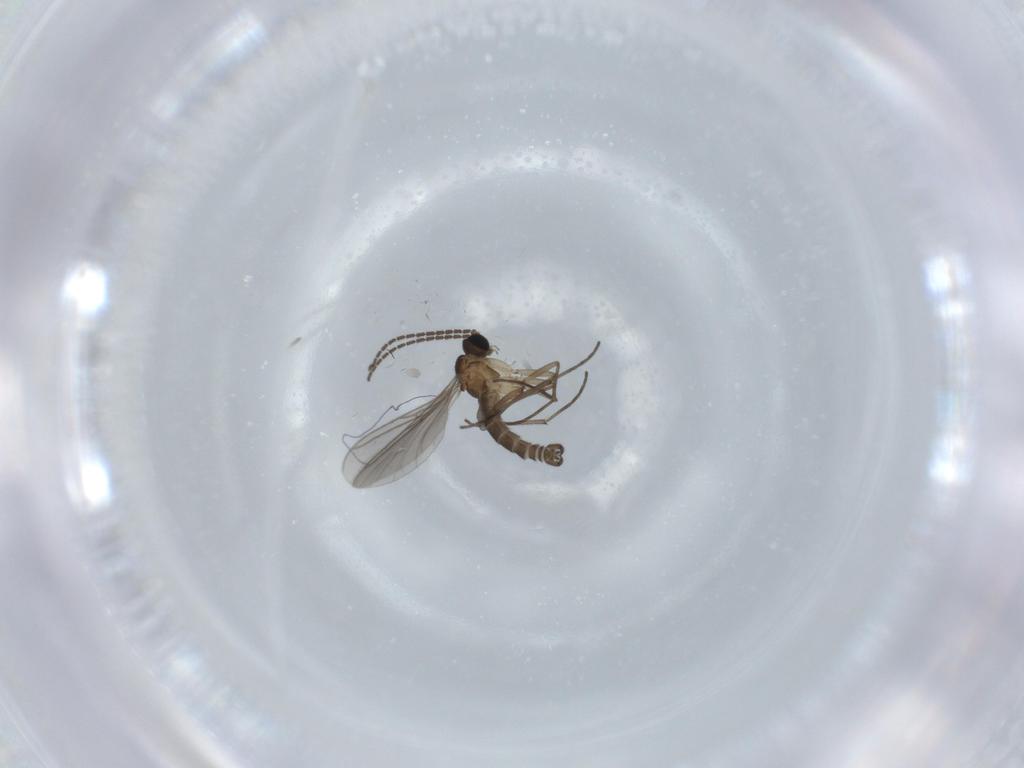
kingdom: Animalia
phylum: Arthropoda
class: Insecta
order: Diptera
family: Sciaridae
